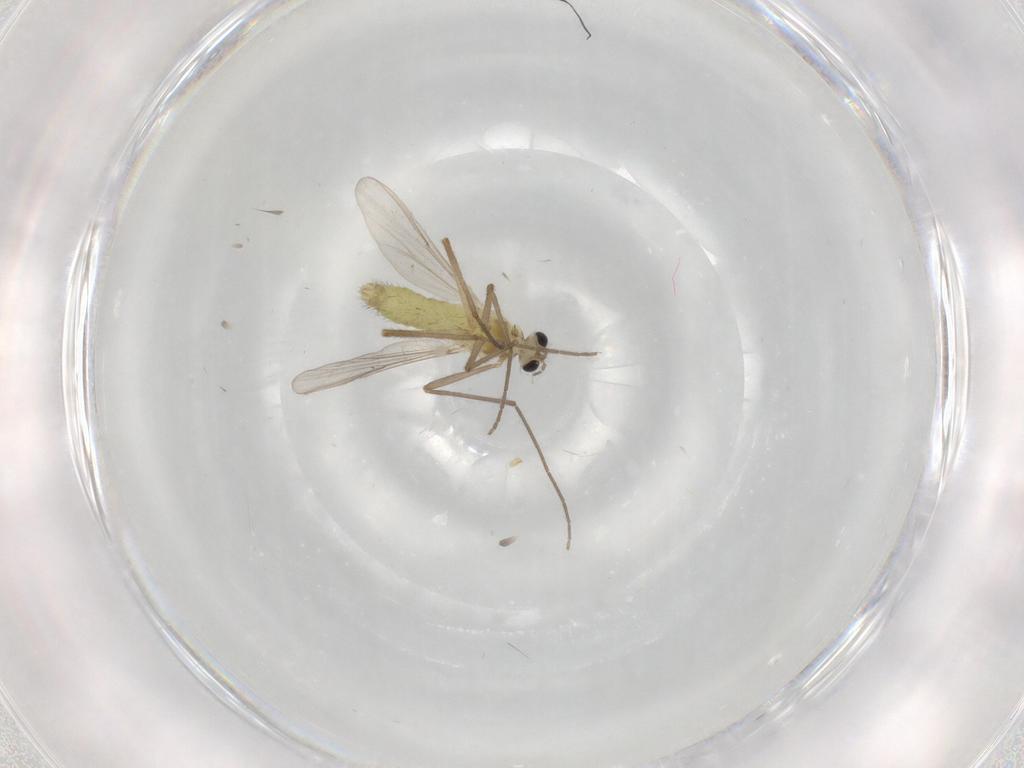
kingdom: Animalia
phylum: Arthropoda
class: Insecta
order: Diptera
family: Chironomidae
